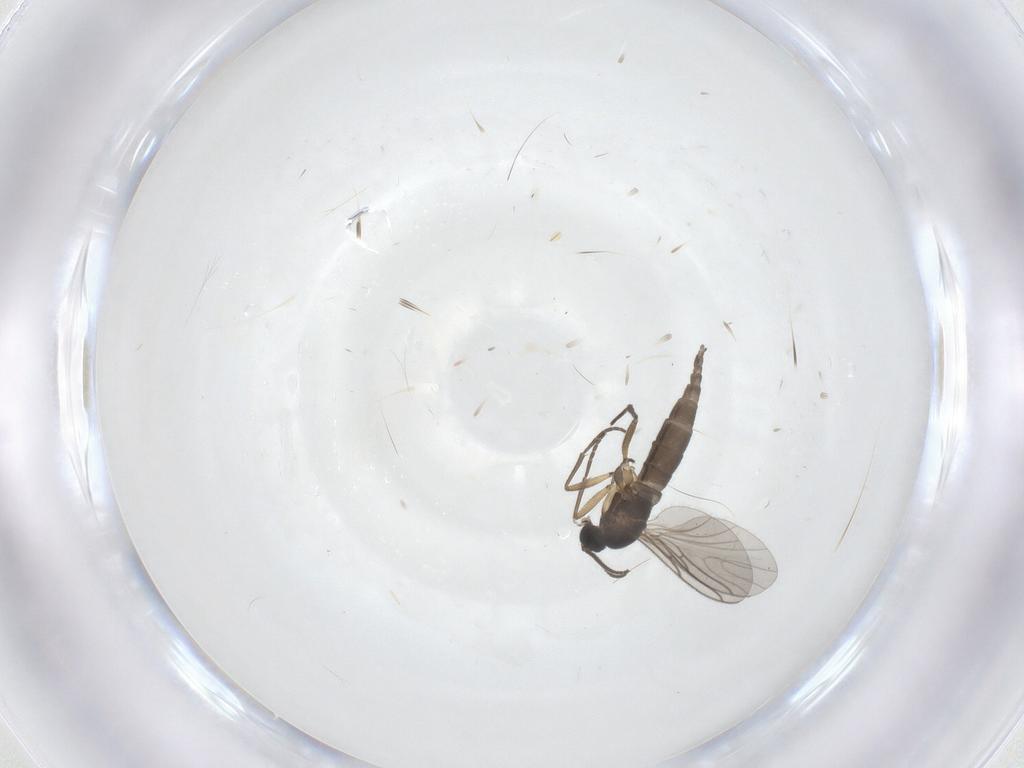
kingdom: Animalia
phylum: Arthropoda
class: Insecta
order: Diptera
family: Sciaridae
